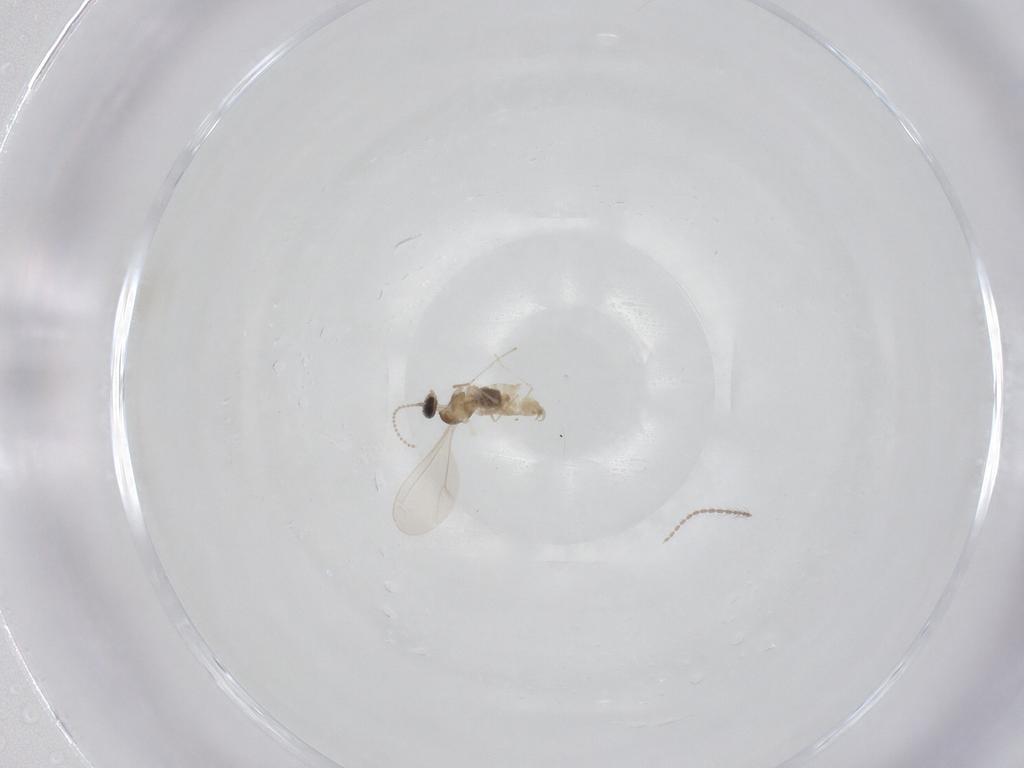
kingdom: Animalia
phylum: Arthropoda
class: Insecta
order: Diptera
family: Cecidomyiidae
